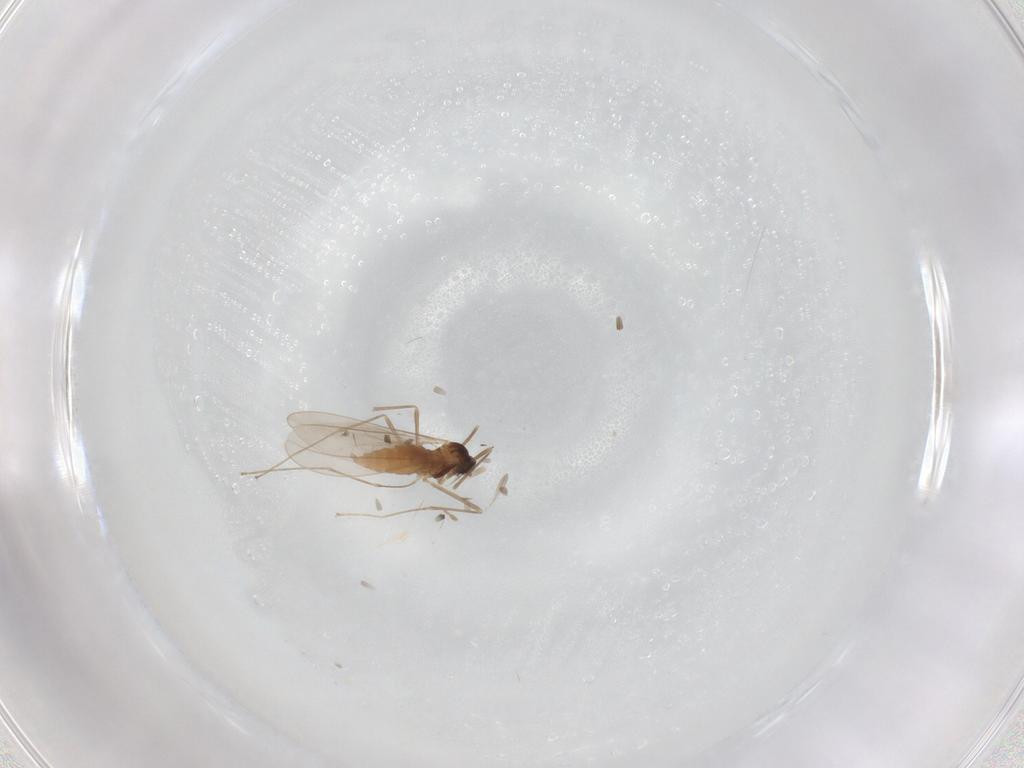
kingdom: Animalia
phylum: Arthropoda
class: Insecta
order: Diptera
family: Cecidomyiidae
